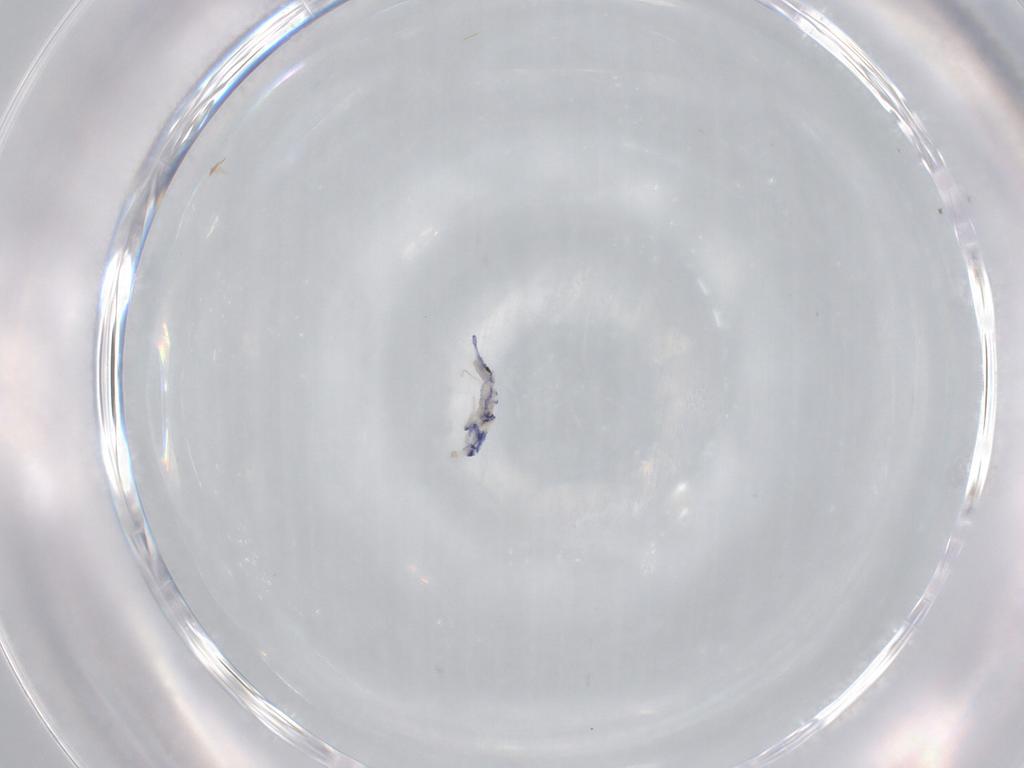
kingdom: Animalia
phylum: Arthropoda
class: Collembola
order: Entomobryomorpha
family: Entomobryidae
